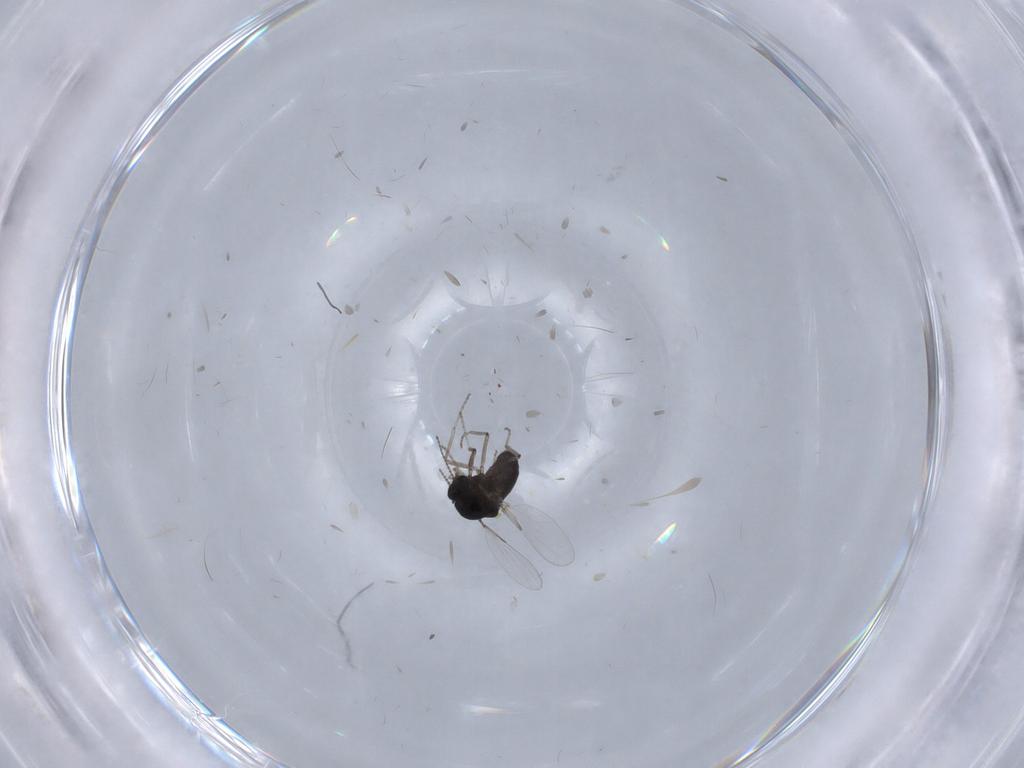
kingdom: Animalia
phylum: Arthropoda
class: Insecta
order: Diptera
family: Ceratopogonidae
